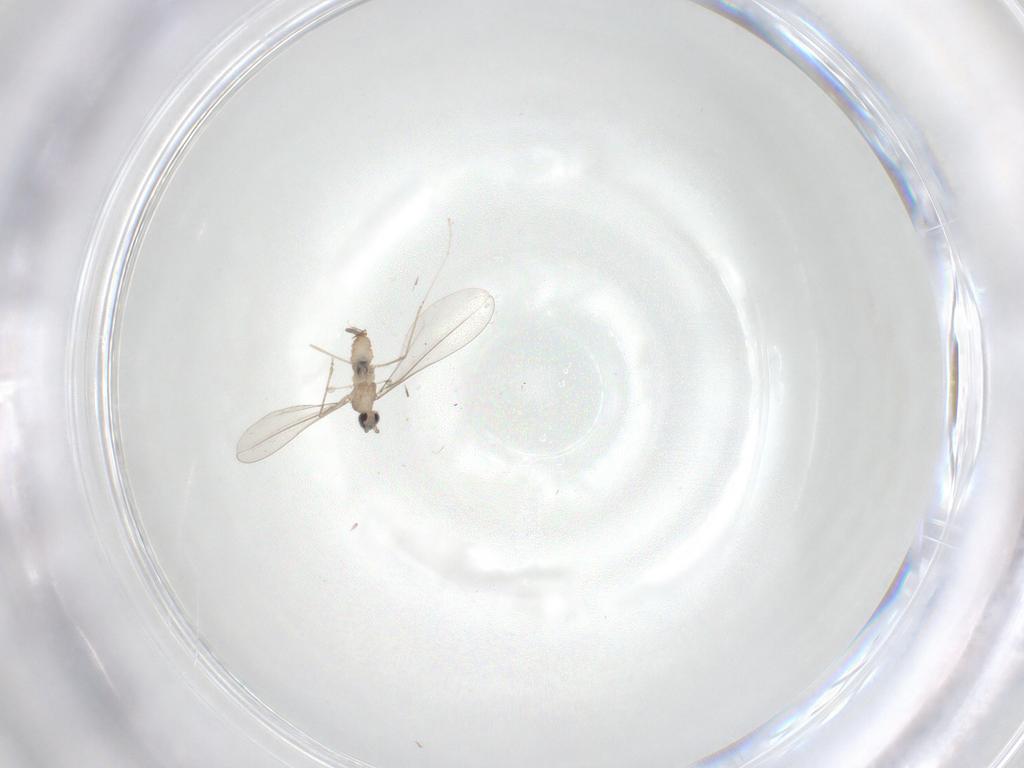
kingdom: Animalia
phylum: Arthropoda
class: Insecta
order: Diptera
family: Cecidomyiidae
